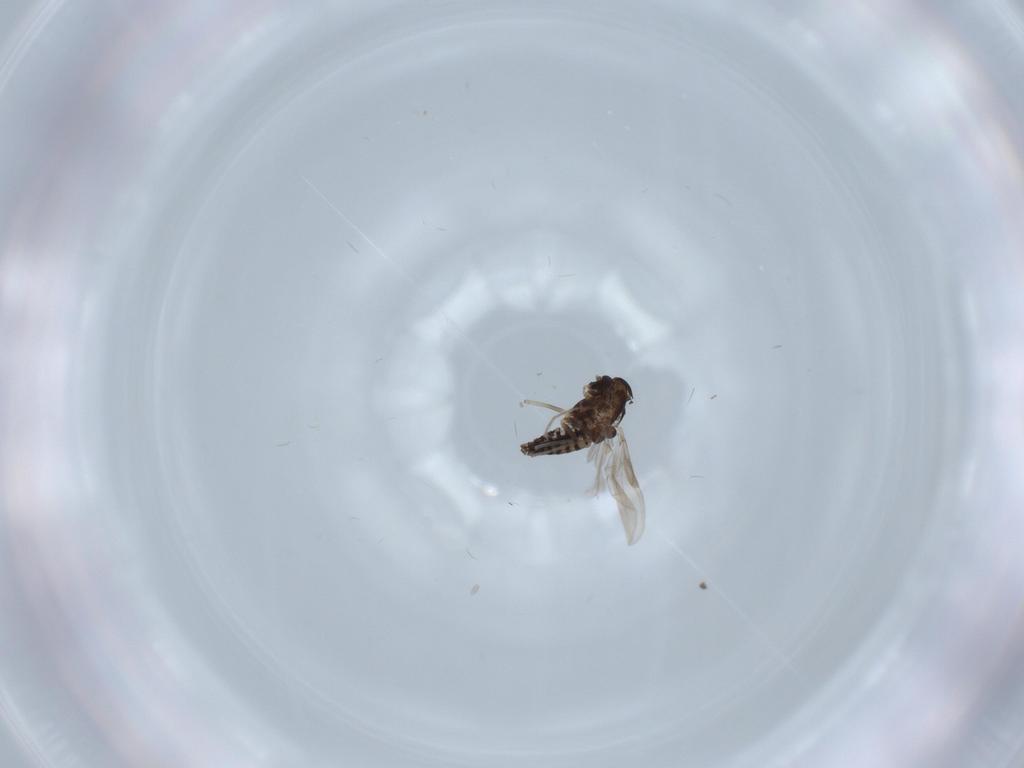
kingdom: Animalia
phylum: Arthropoda
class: Insecta
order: Diptera
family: Chironomidae
